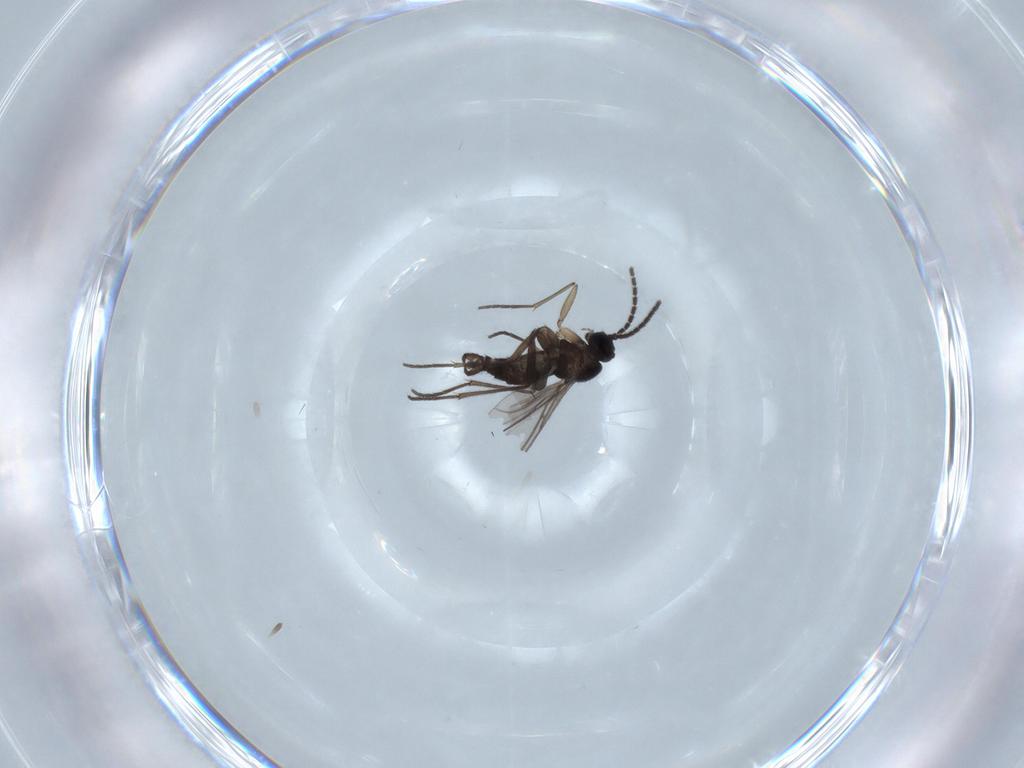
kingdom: Animalia
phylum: Arthropoda
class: Insecta
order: Diptera
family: Sciaridae
